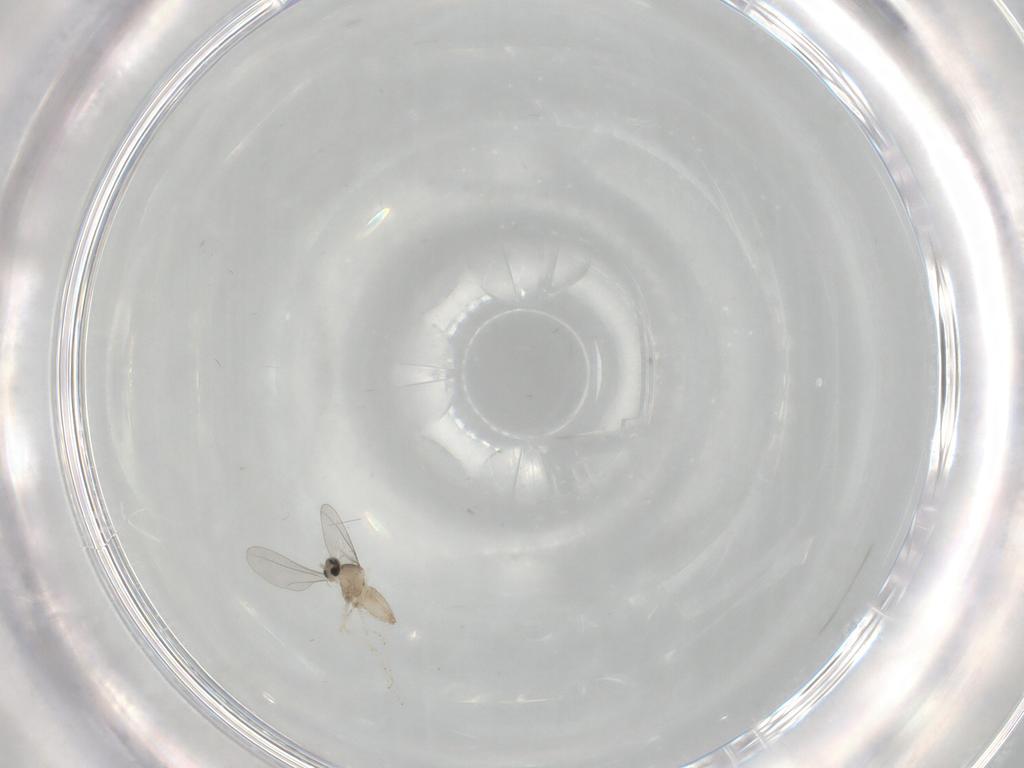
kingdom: Animalia
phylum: Arthropoda
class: Insecta
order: Diptera
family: Cecidomyiidae
